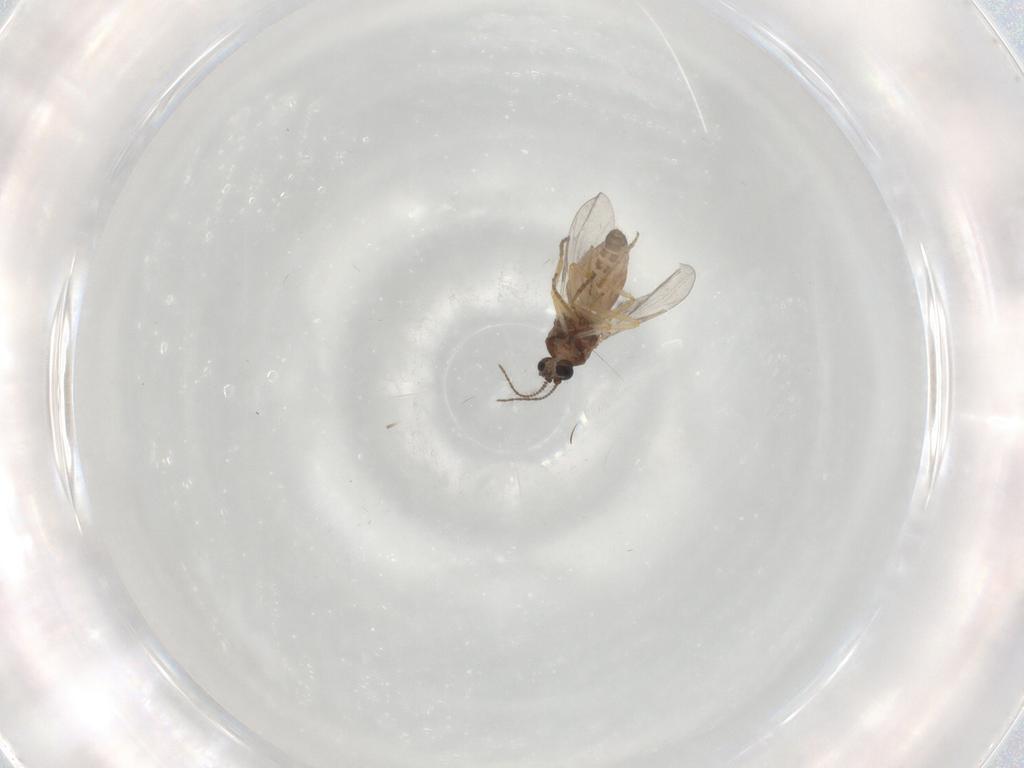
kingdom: Animalia
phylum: Arthropoda
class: Insecta
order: Diptera
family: Ceratopogonidae
